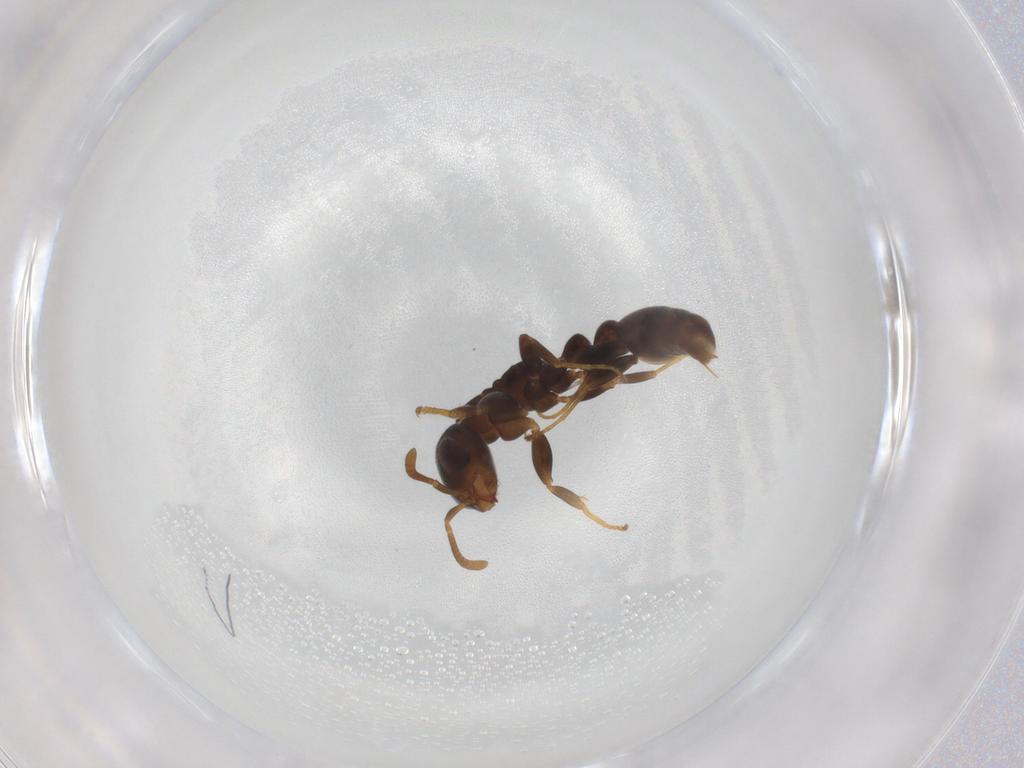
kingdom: Animalia
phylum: Arthropoda
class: Insecta
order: Hymenoptera
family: Formicidae
